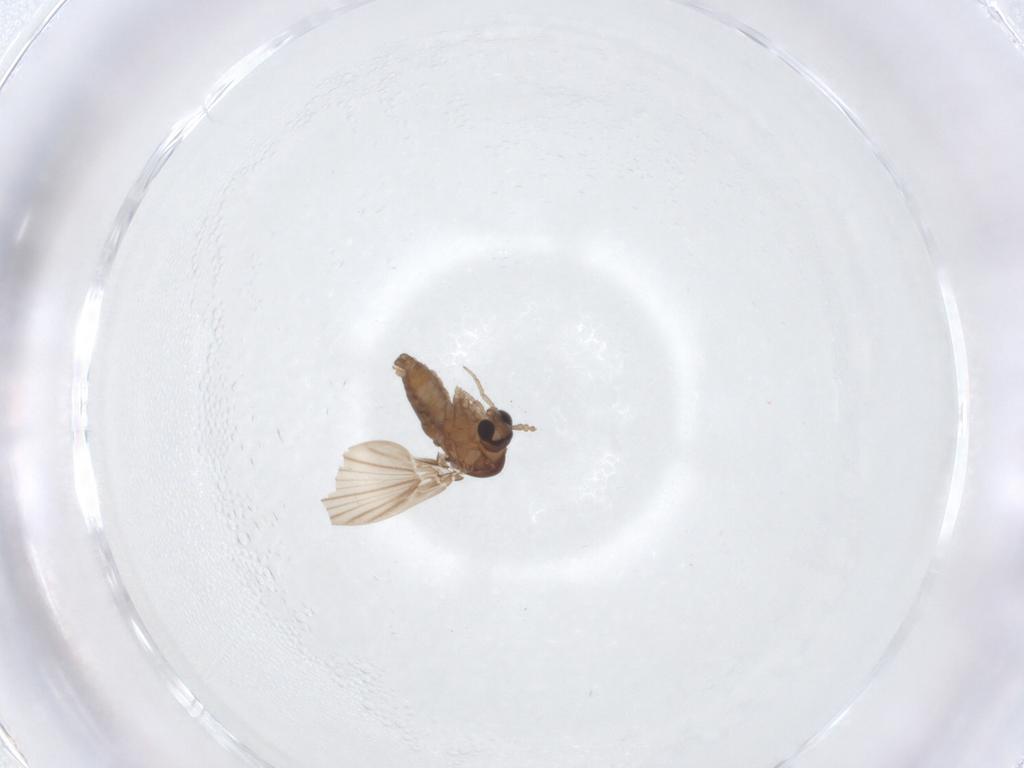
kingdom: Animalia
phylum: Arthropoda
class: Insecta
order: Diptera
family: Psychodidae
